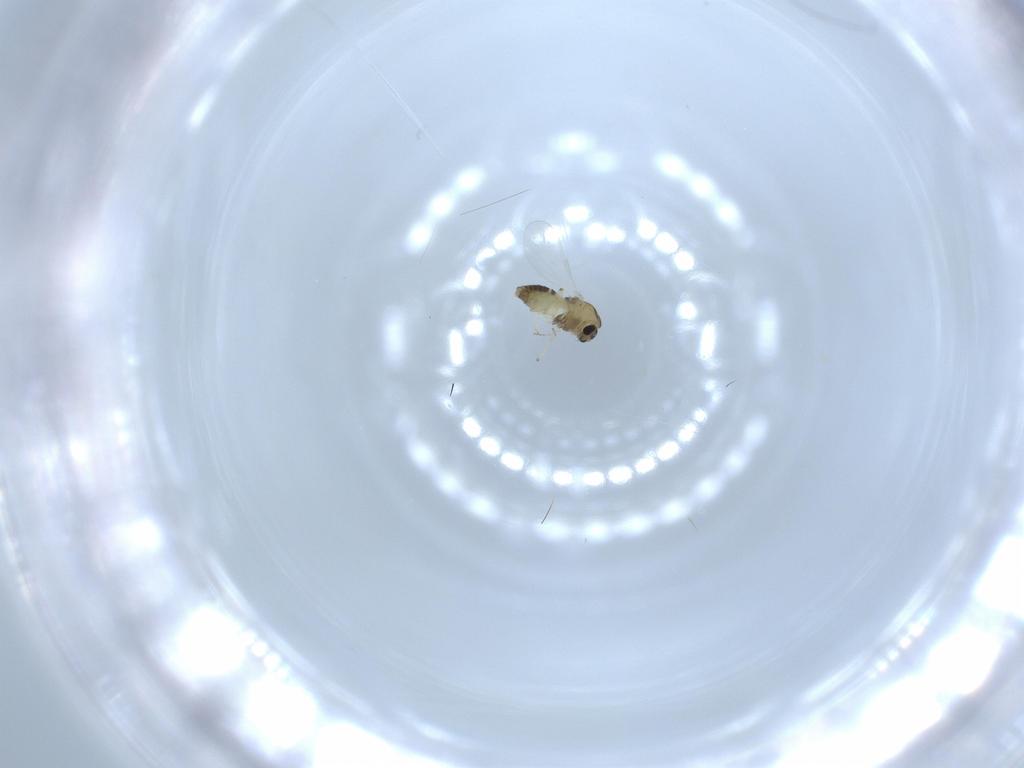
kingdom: Animalia
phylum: Arthropoda
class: Insecta
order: Diptera
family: Chironomidae
